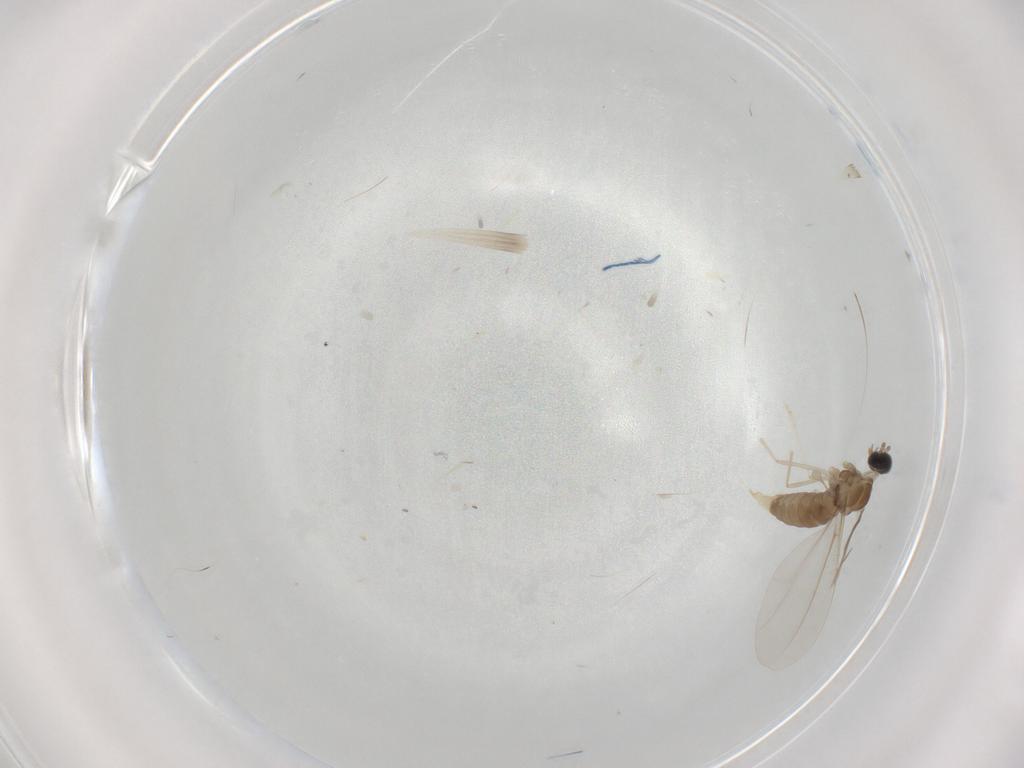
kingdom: Animalia
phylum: Arthropoda
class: Insecta
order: Diptera
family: Cecidomyiidae
